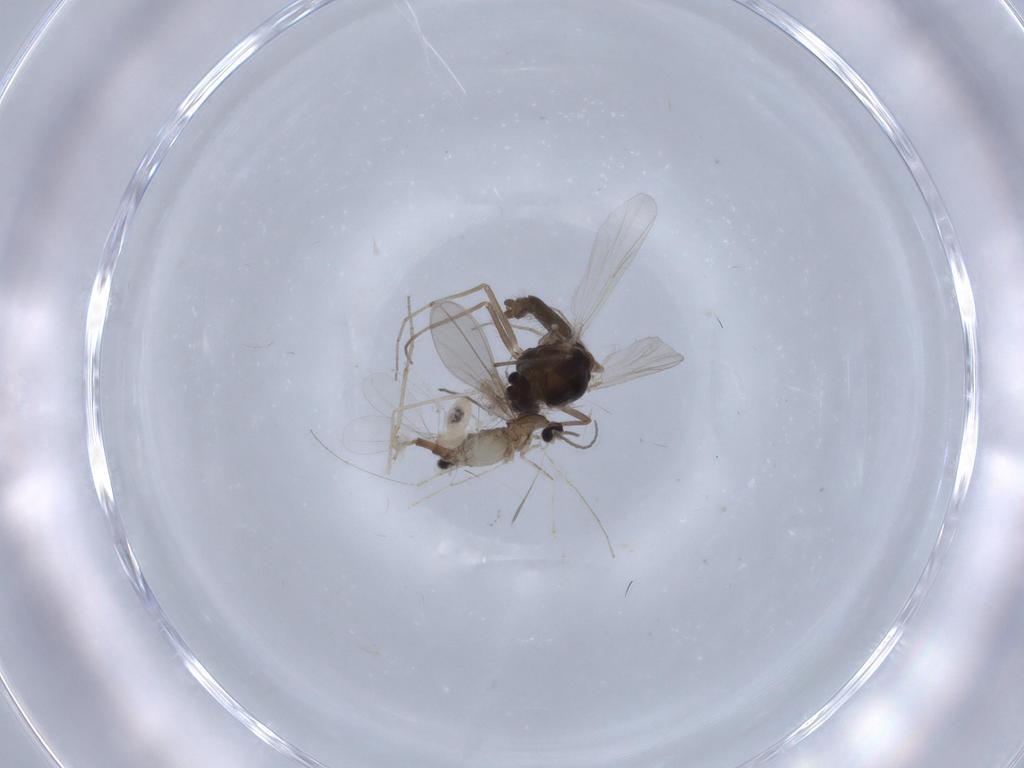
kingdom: Animalia
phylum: Arthropoda
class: Insecta
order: Diptera
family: Chironomidae
